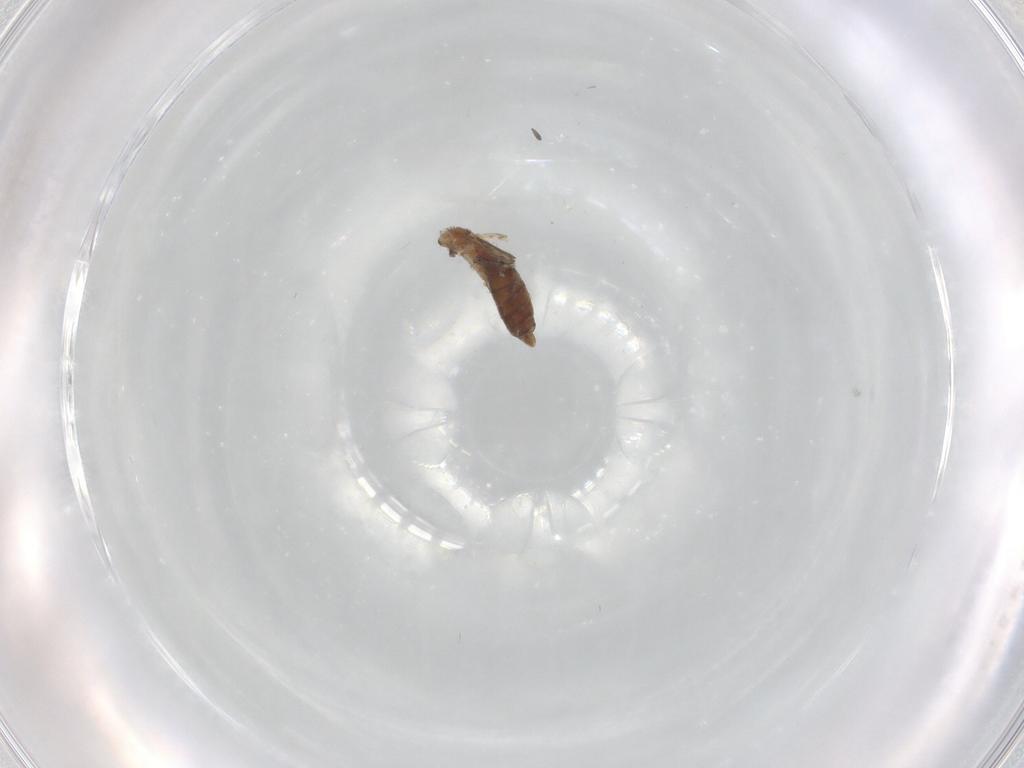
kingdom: Animalia
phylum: Arthropoda
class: Insecta
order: Diptera
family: Psychodidae
